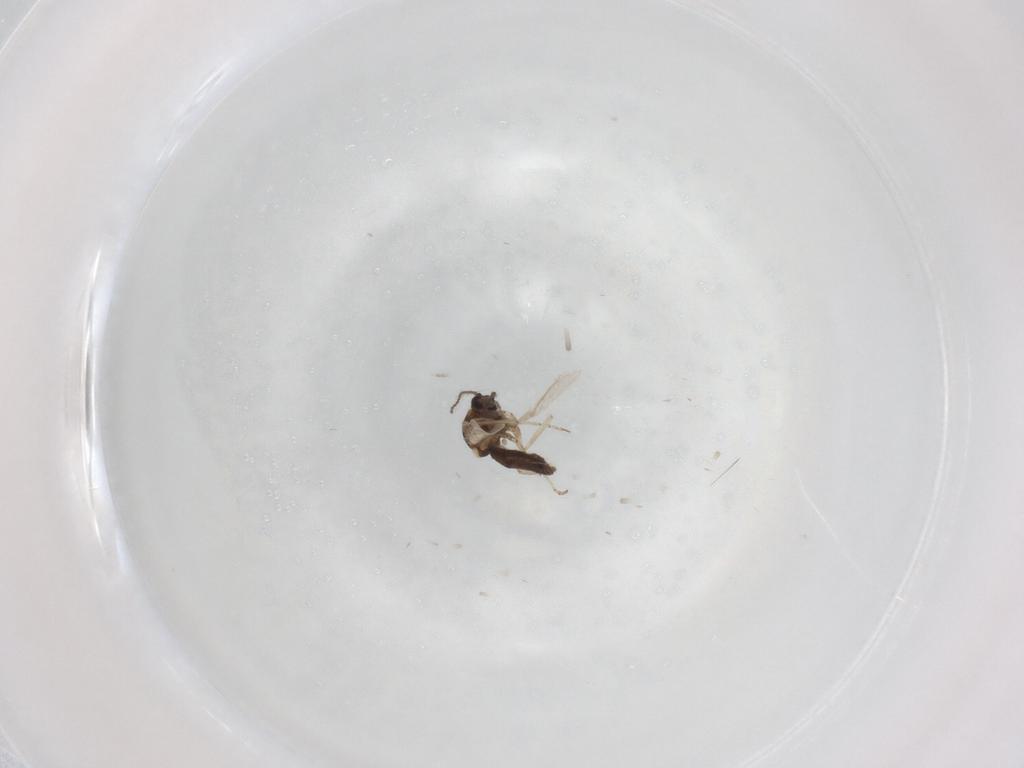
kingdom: Animalia
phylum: Arthropoda
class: Insecta
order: Diptera
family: Ceratopogonidae
